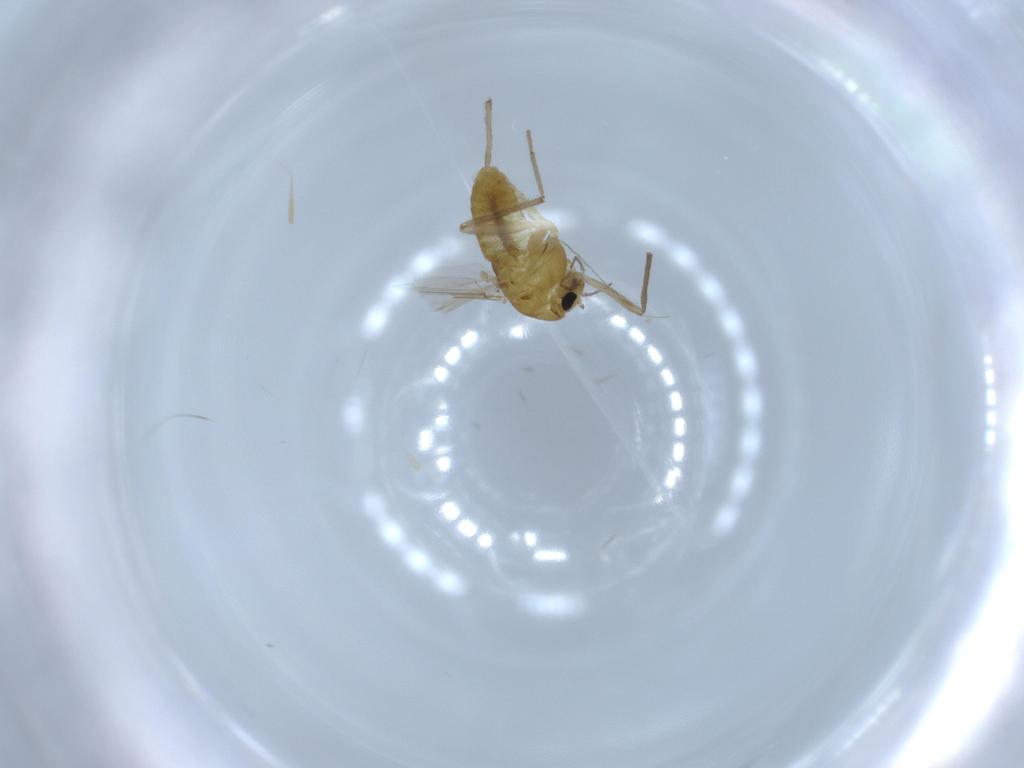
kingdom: Animalia
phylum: Arthropoda
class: Insecta
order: Diptera
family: Chironomidae
